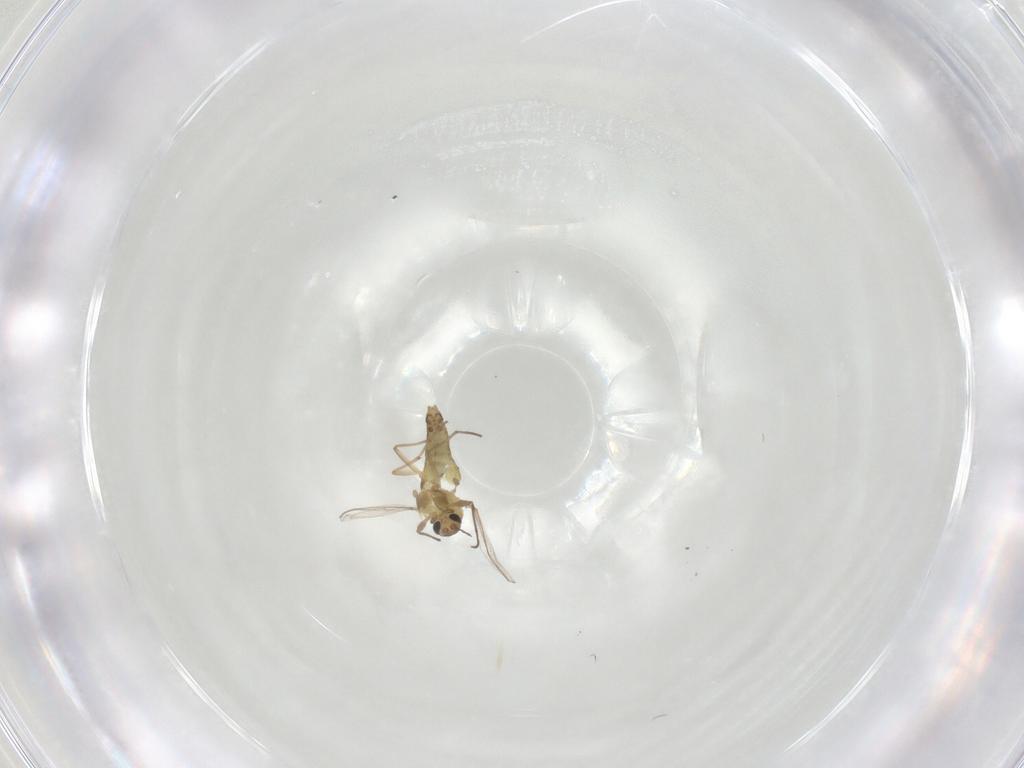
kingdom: Animalia
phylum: Arthropoda
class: Insecta
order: Diptera
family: Chironomidae
